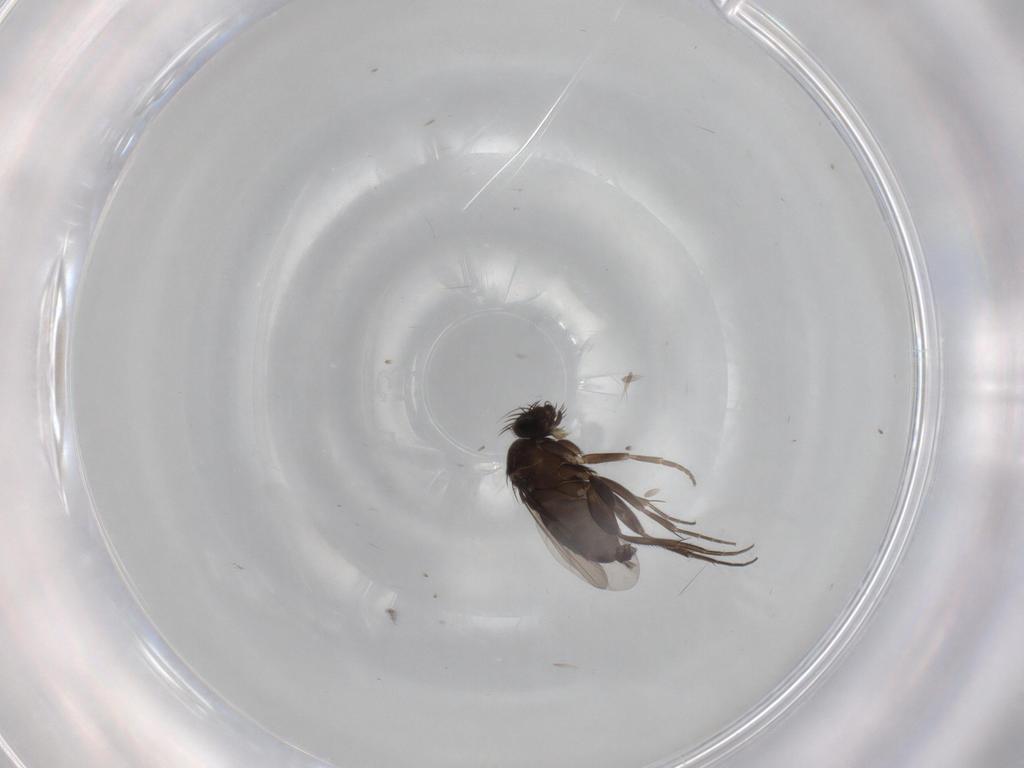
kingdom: Animalia
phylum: Arthropoda
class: Insecta
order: Diptera
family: Phoridae
